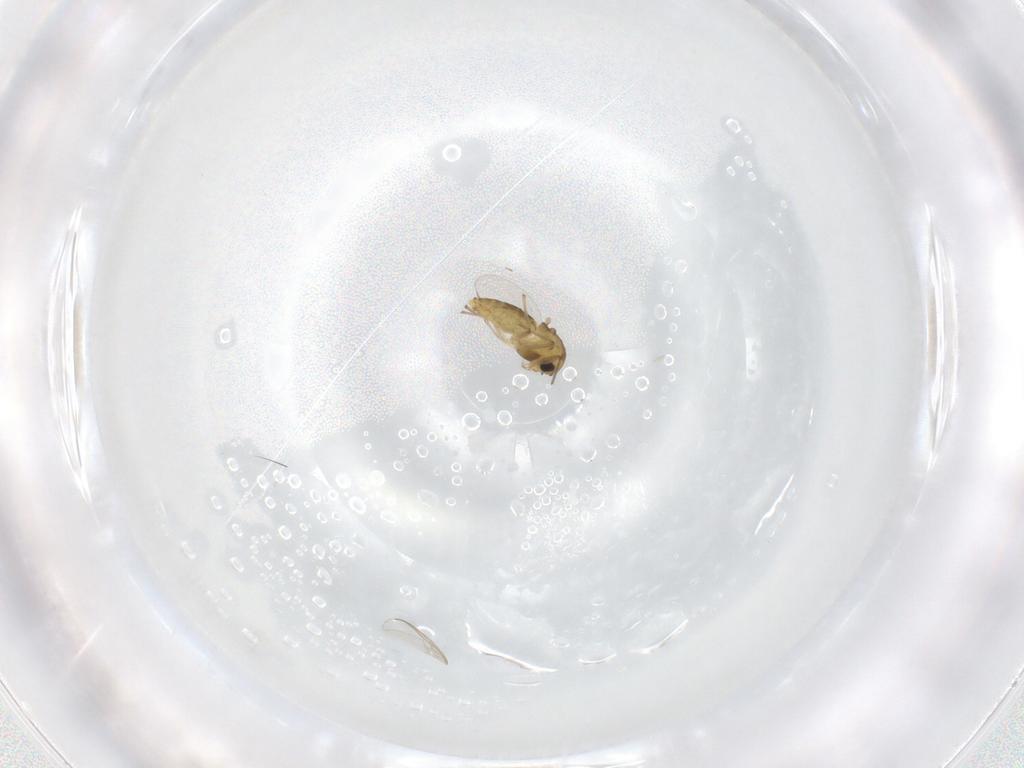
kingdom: Animalia
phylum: Arthropoda
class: Insecta
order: Diptera
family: Chironomidae
